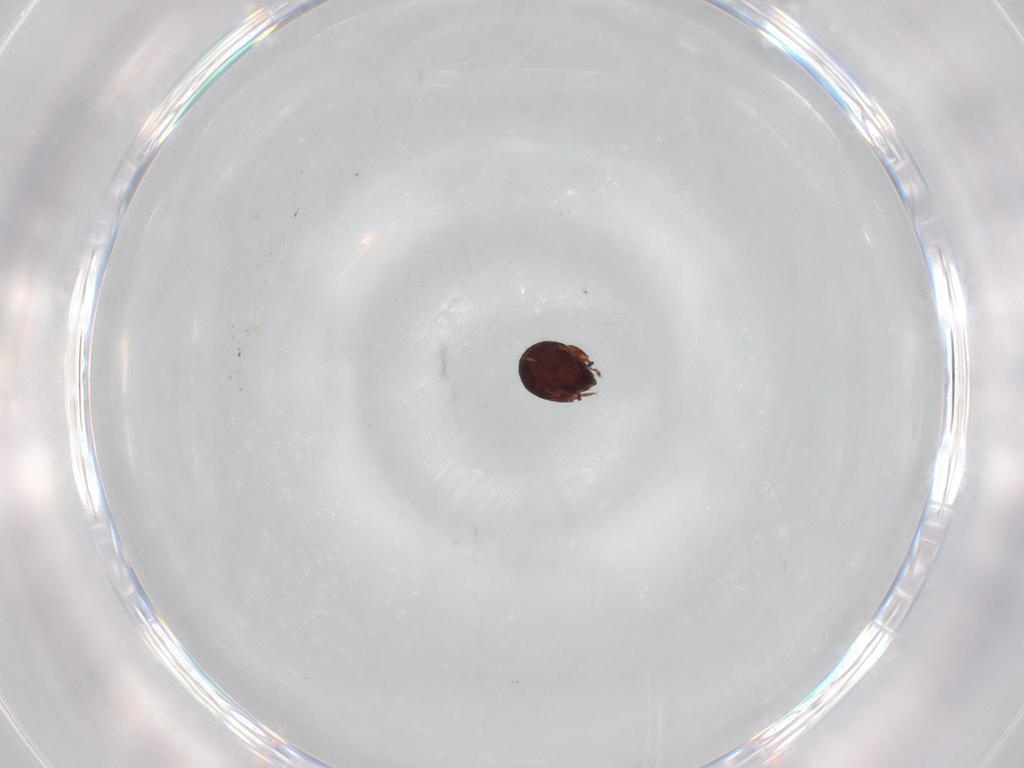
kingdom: Animalia
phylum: Arthropoda
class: Arachnida
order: Sarcoptiformes
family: Humerobatidae
